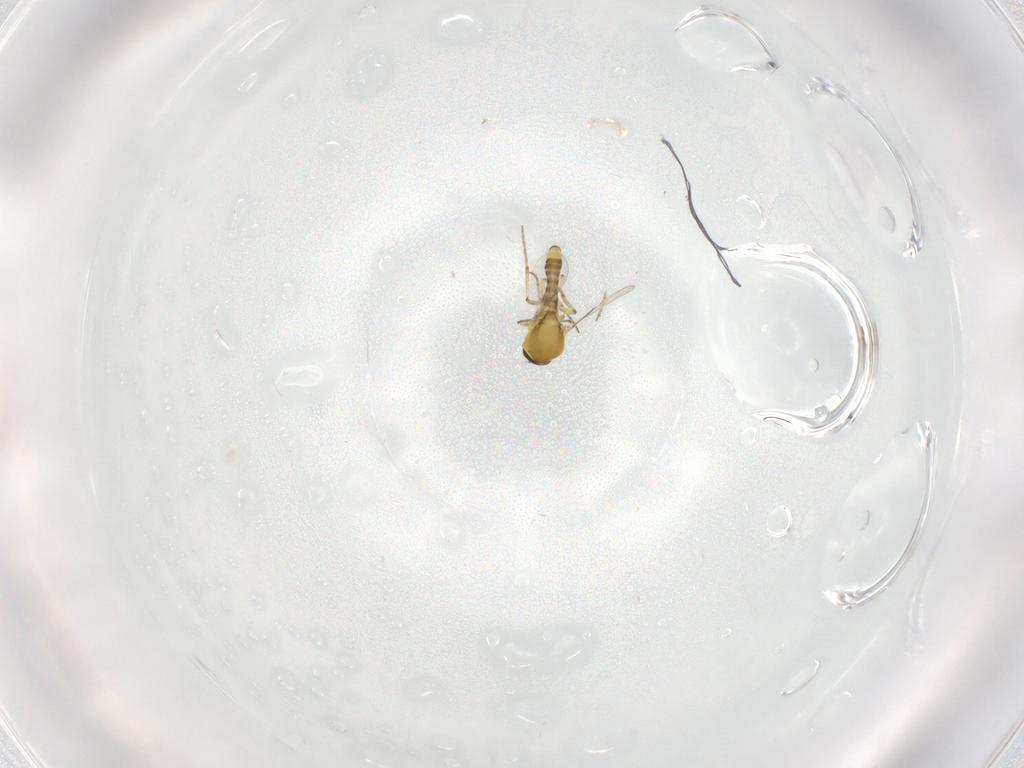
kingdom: Animalia
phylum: Arthropoda
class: Insecta
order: Diptera
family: Ceratopogonidae
